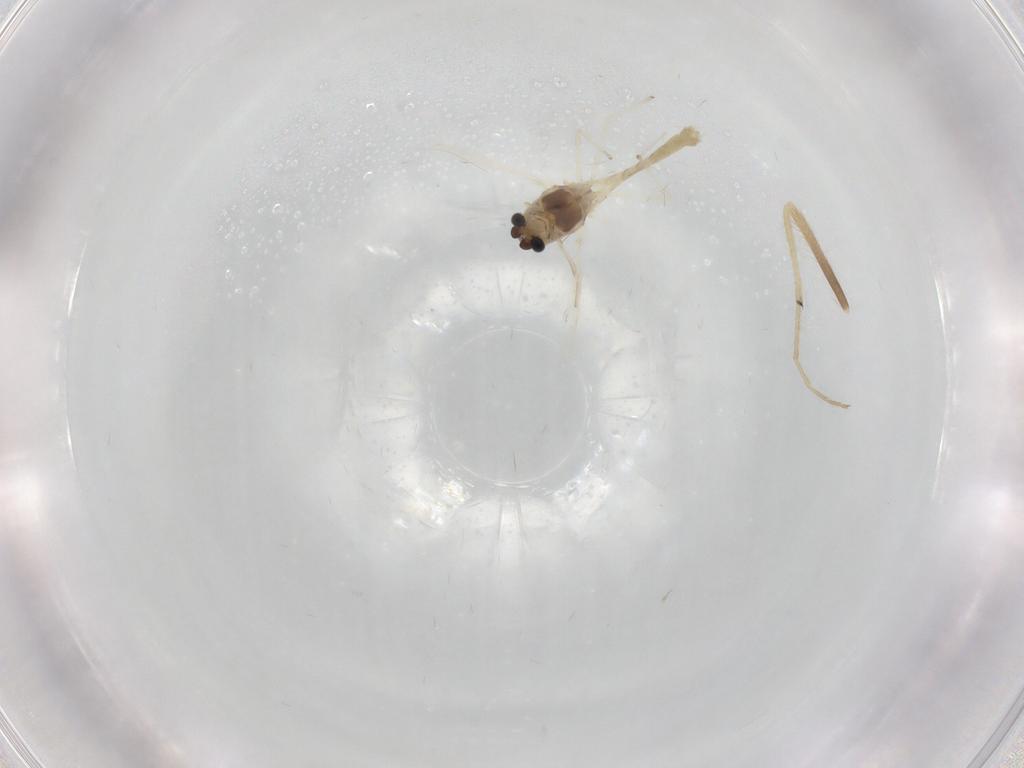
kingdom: Animalia
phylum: Arthropoda
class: Insecta
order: Diptera
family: Chironomidae
